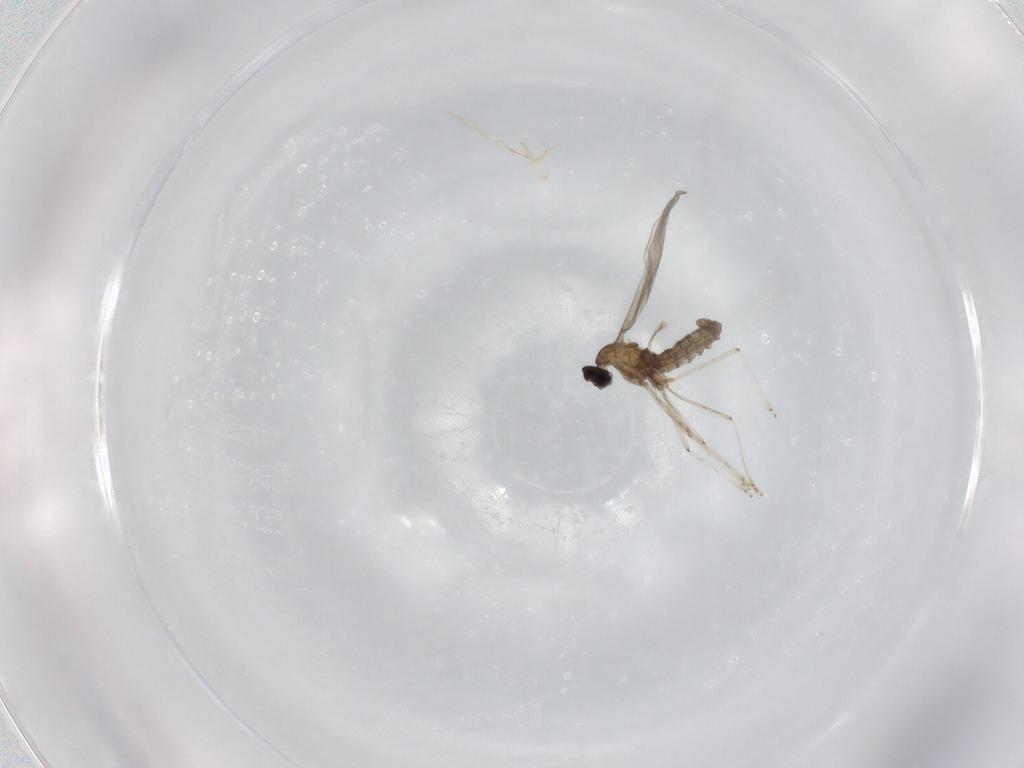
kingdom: Animalia
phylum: Arthropoda
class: Insecta
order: Diptera
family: Cecidomyiidae
